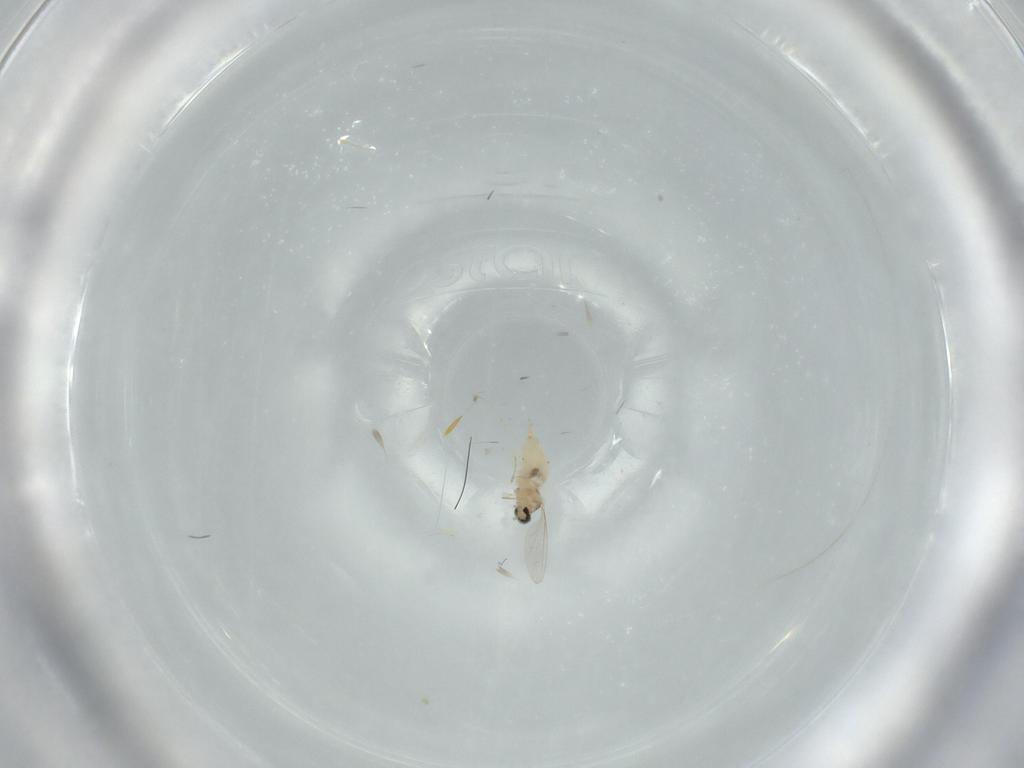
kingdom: Animalia
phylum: Arthropoda
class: Insecta
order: Diptera
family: Cecidomyiidae
